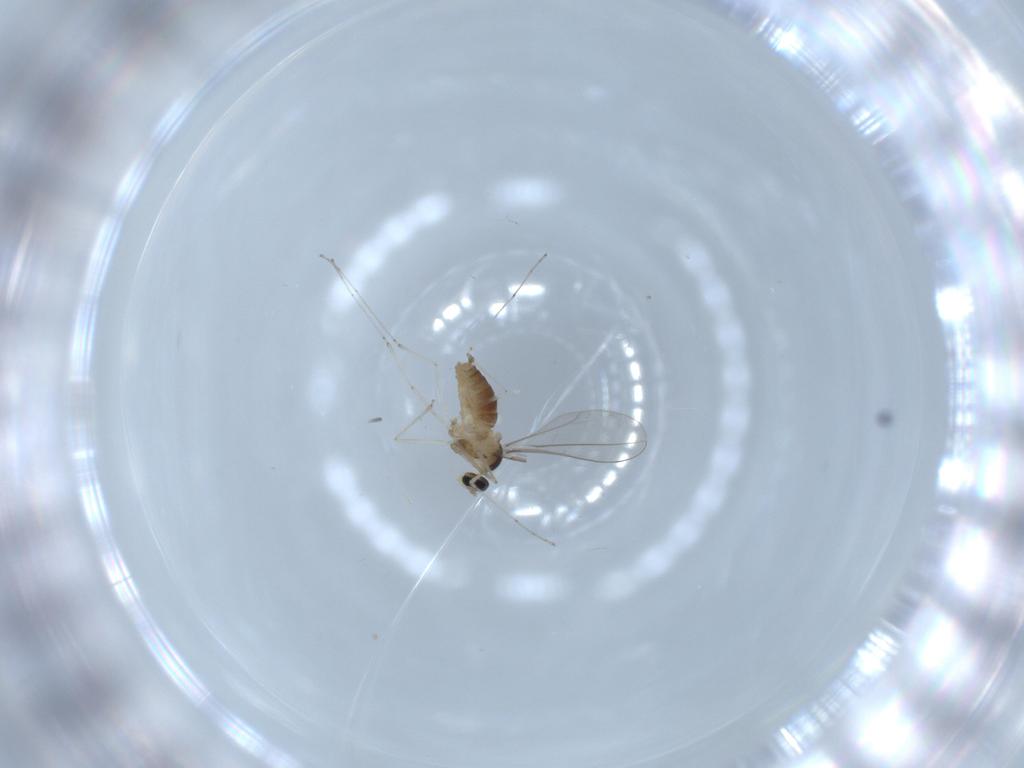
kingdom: Animalia
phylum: Arthropoda
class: Insecta
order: Diptera
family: Cecidomyiidae
